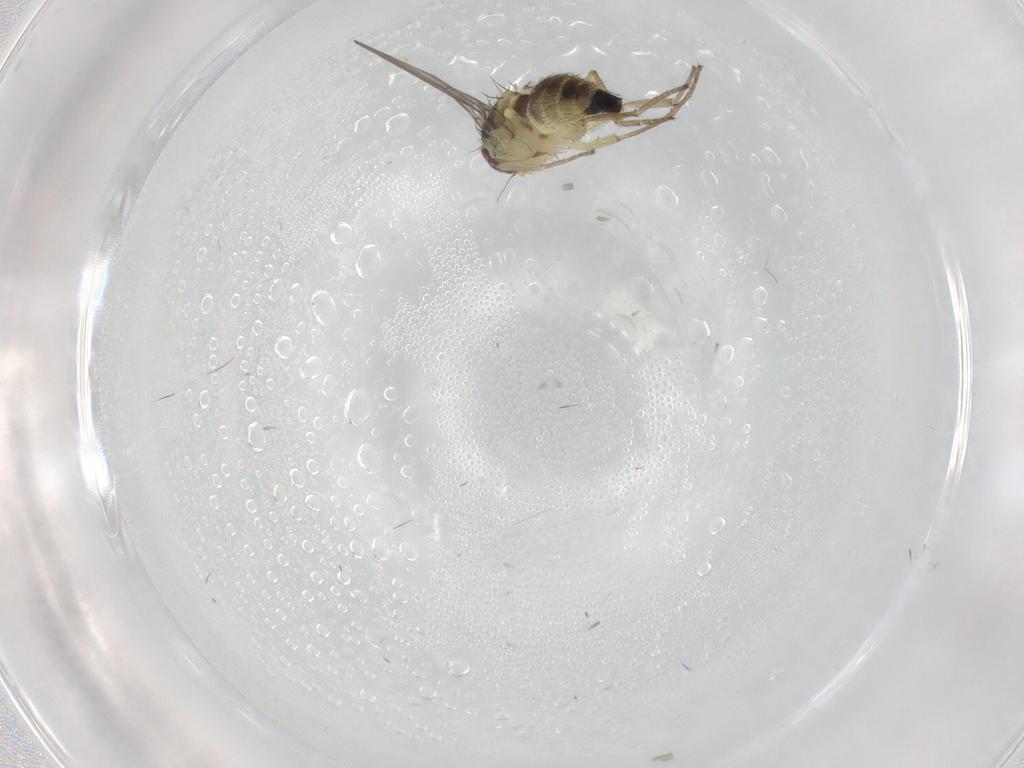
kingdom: Animalia
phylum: Arthropoda
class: Insecta
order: Diptera
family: Agromyzidae
